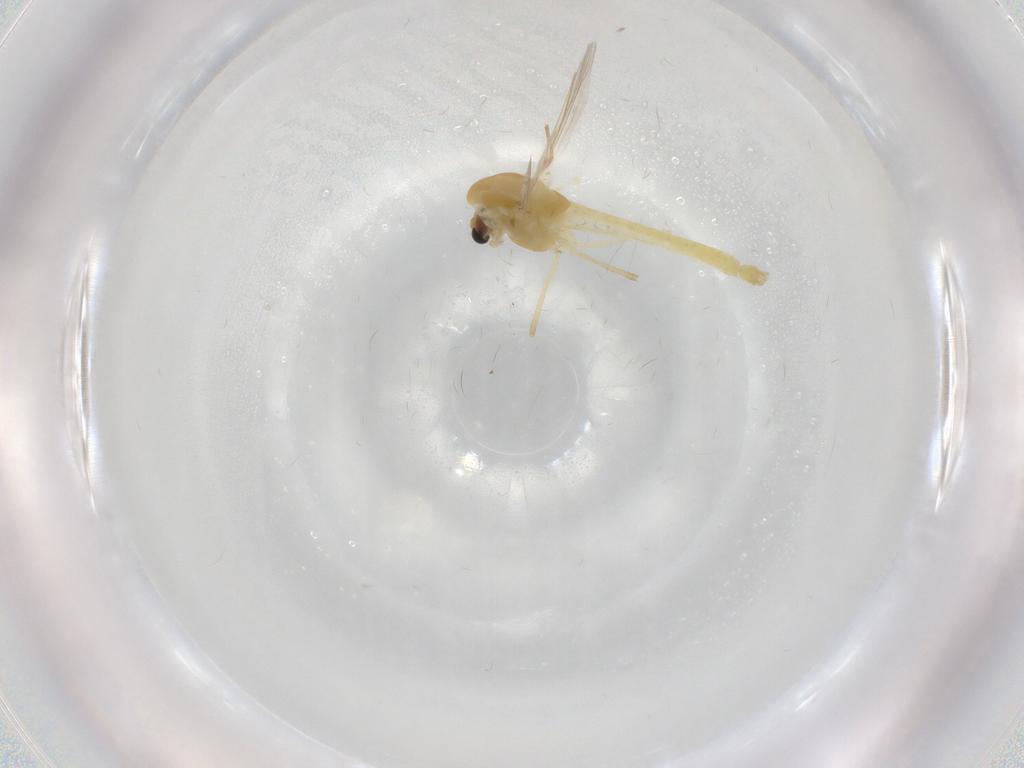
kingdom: Animalia
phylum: Arthropoda
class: Insecta
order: Diptera
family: Chironomidae
